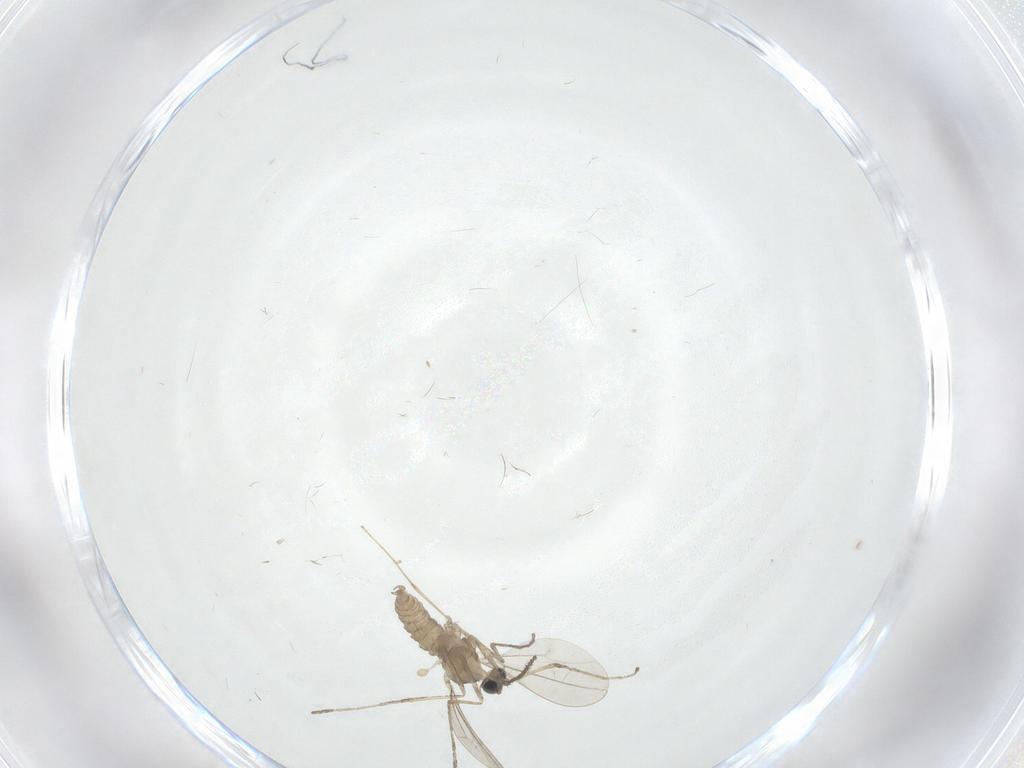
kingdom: Animalia
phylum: Arthropoda
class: Insecta
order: Diptera
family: Cecidomyiidae
